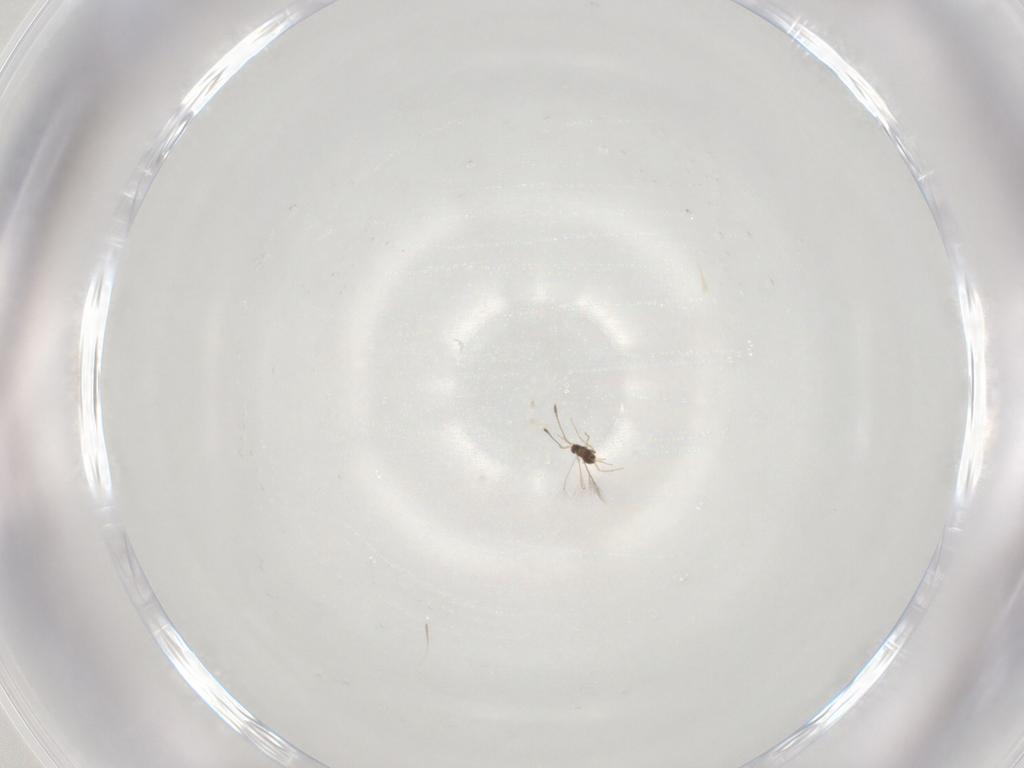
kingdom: Animalia
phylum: Arthropoda
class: Insecta
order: Hymenoptera
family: Mymaridae
